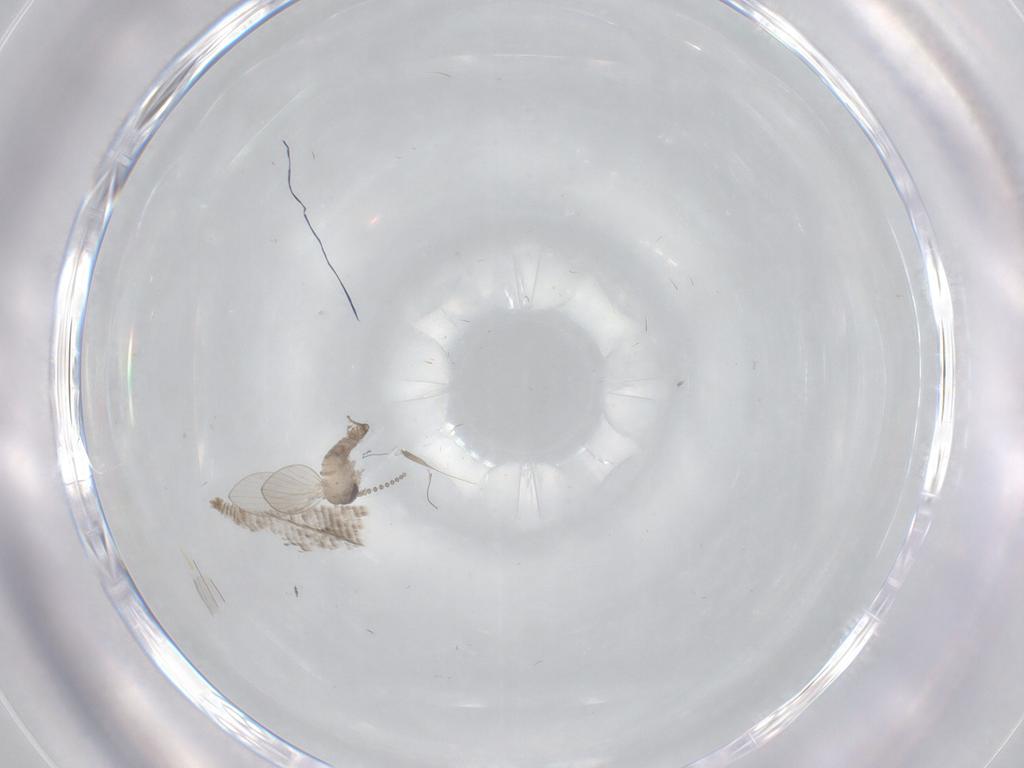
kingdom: Animalia
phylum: Arthropoda
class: Insecta
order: Diptera
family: Psychodidae
